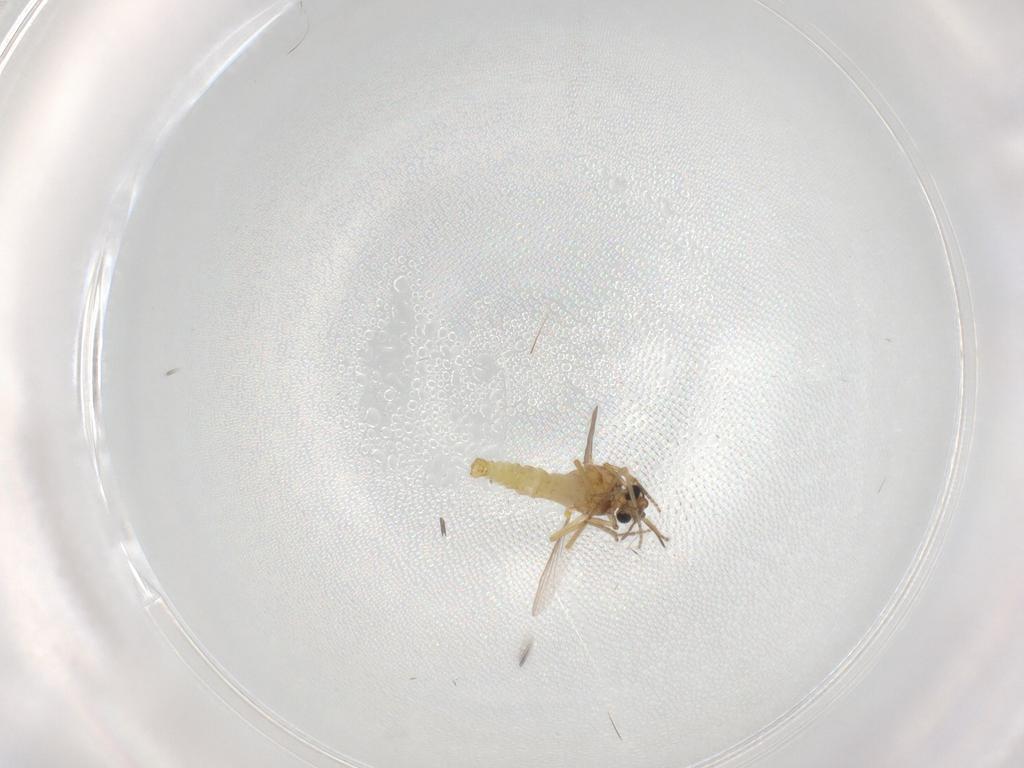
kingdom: Animalia
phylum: Arthropoda
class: Insecta
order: Diptera
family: Ceratopogonidae
